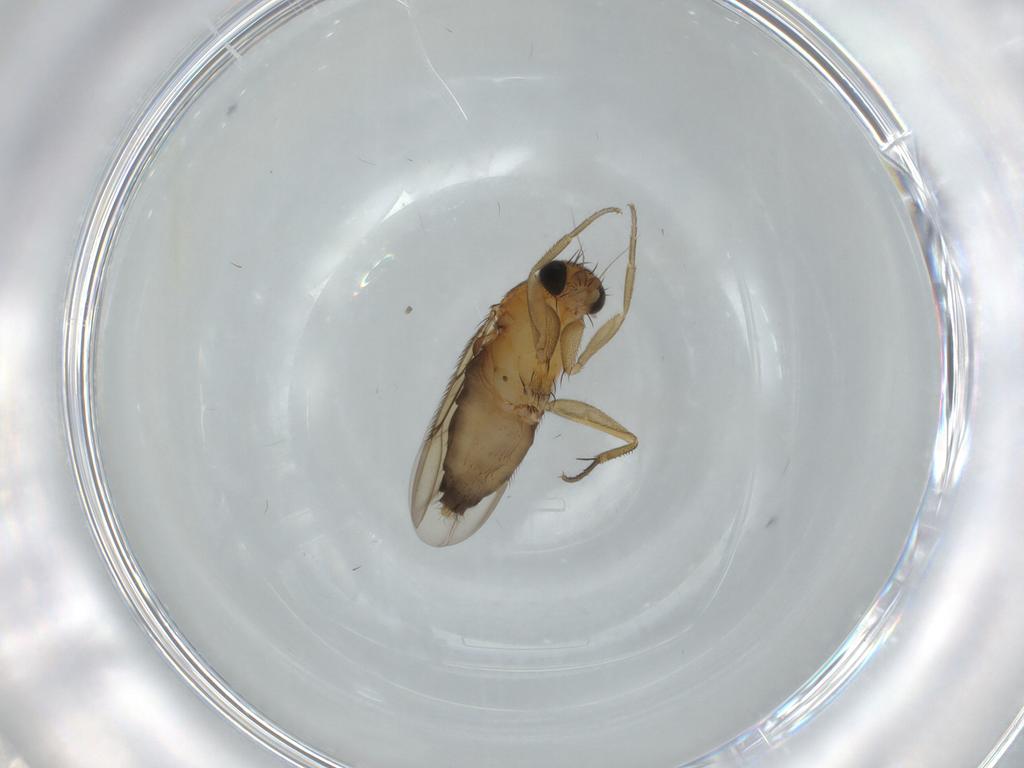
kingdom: Animalia
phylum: Arthropoda
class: Insecta
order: Diptera
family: Phoridae
